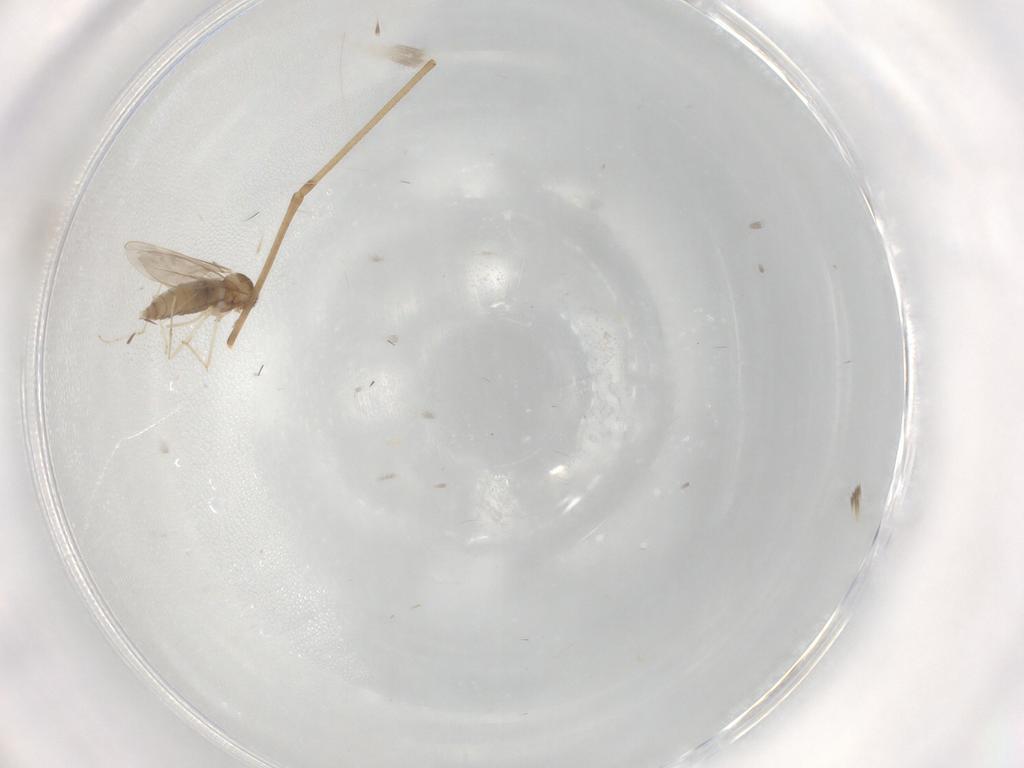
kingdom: Animalia
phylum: Arthropoda
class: Insecta
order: Diptera
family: Cecidomyiidae
